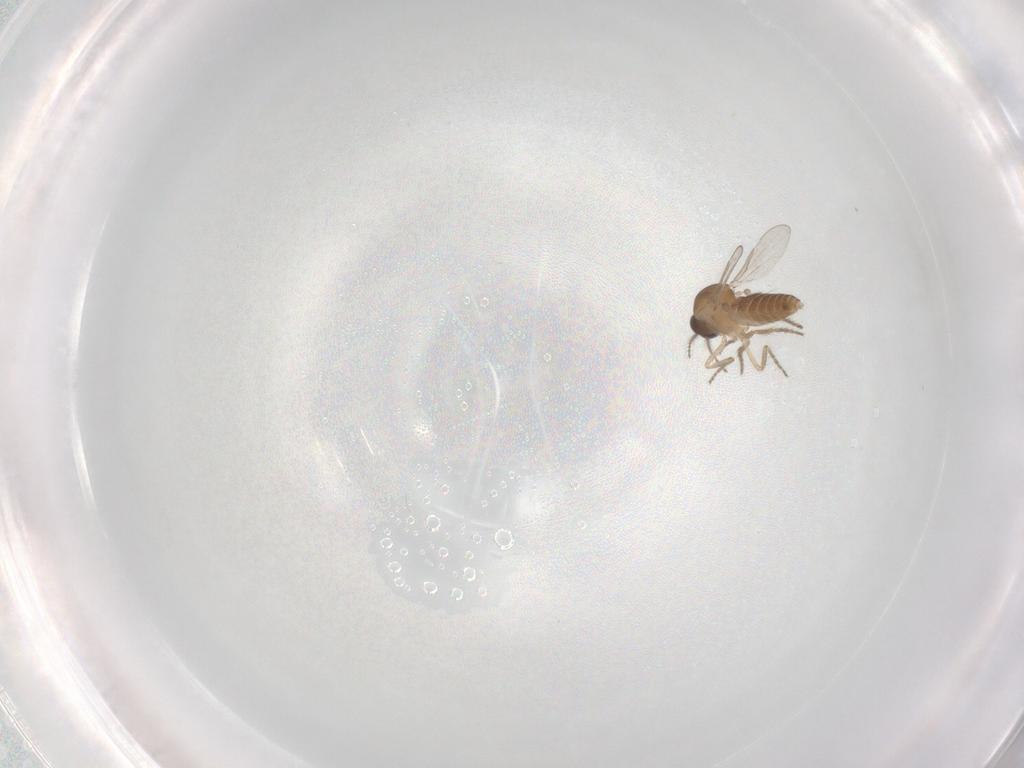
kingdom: Animalia
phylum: Arthropoda
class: Insecta
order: Diptera
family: Ceratopogonidae
